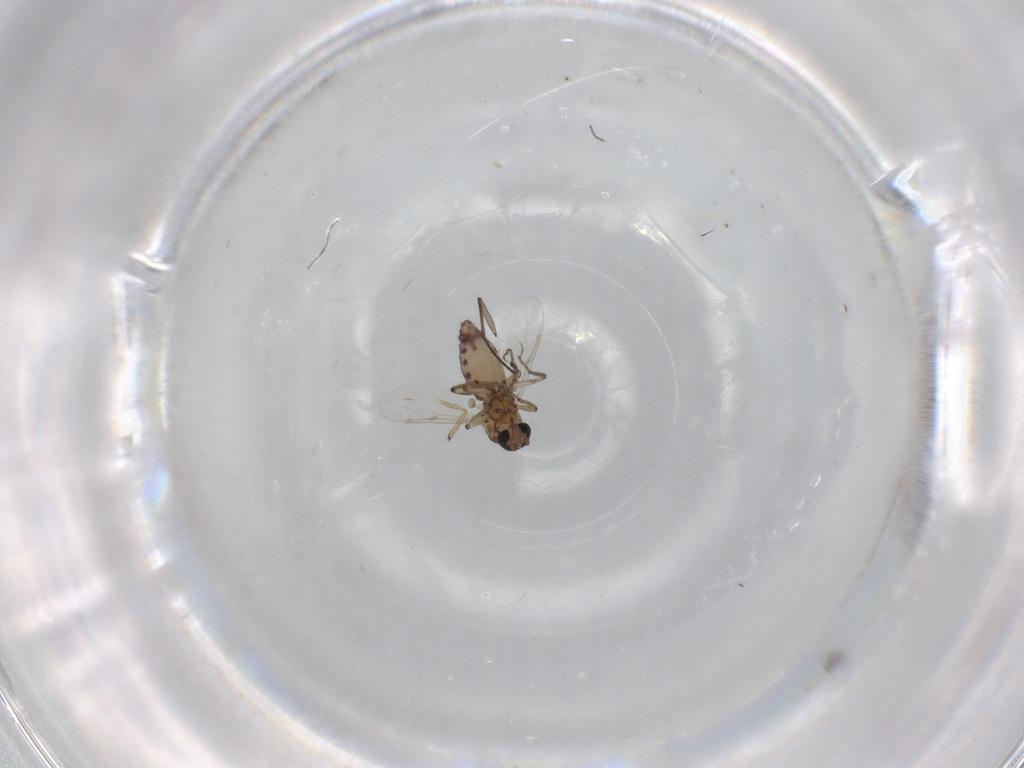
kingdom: Animalia
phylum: Arthropoda
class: Insecta
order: Diptera
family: Ceratopogonidae
